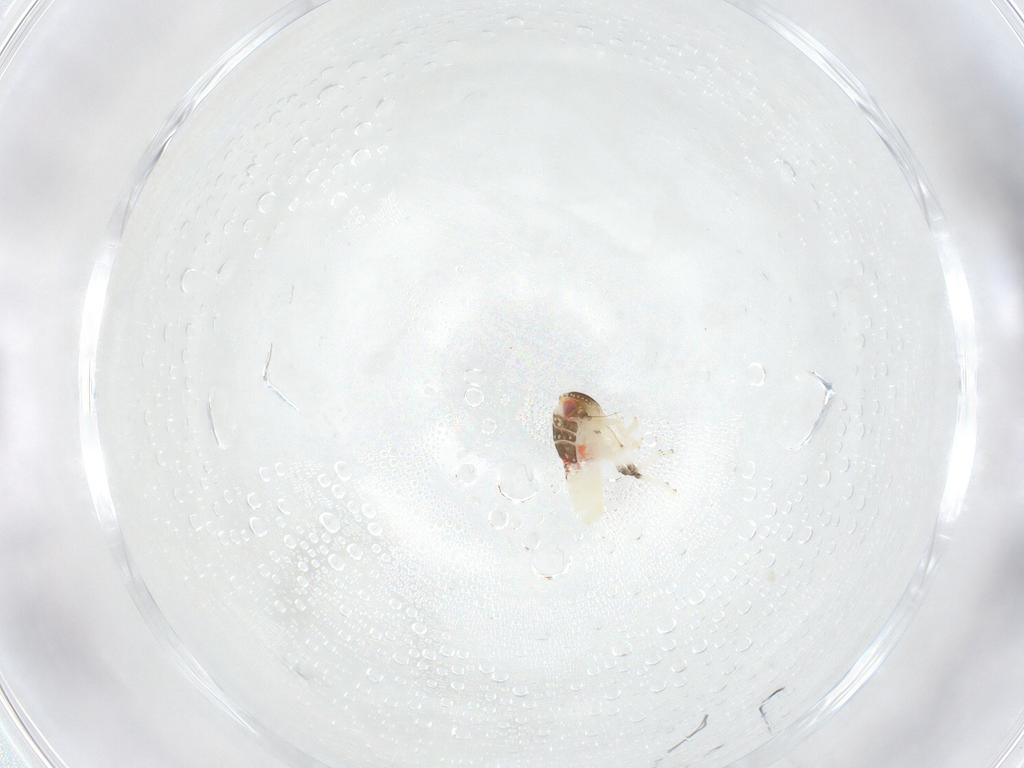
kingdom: Animalia
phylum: Arthropoda
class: Insecta
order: Hemiptera
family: Nogodinidae
